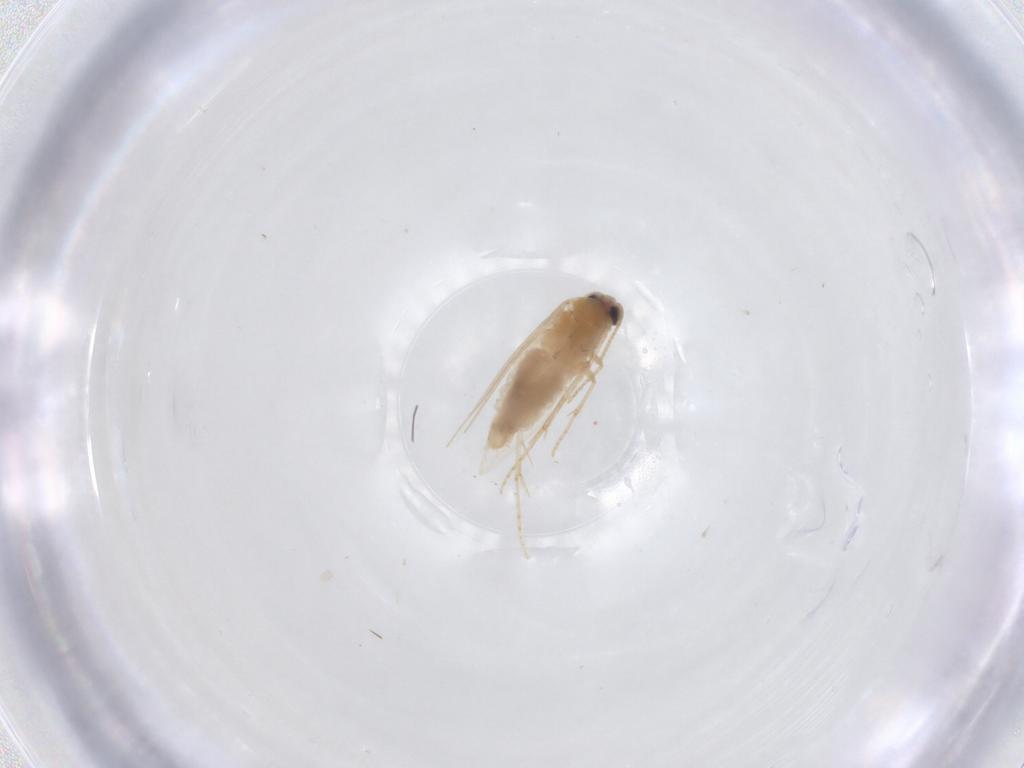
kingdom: Animalia
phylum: Arthropoda
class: Insecta
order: Lepidoptera
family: Nepticulidae
